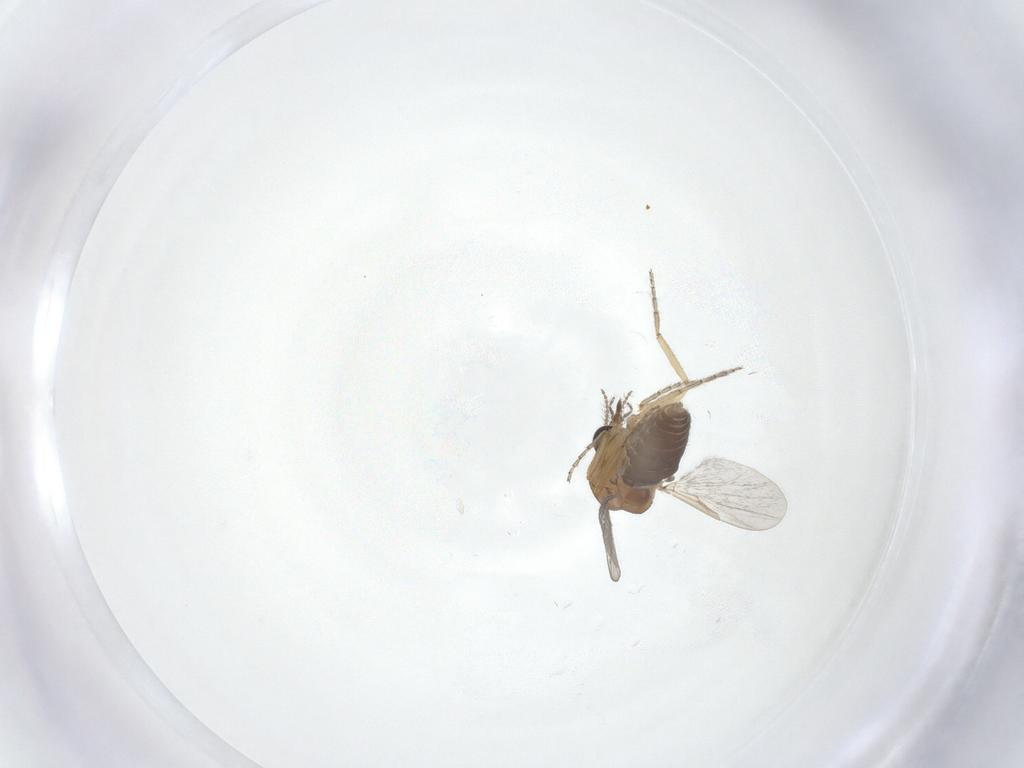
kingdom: Animalia
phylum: Arthropoda
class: Insecta
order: Diptera
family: Ceratopogonidae
